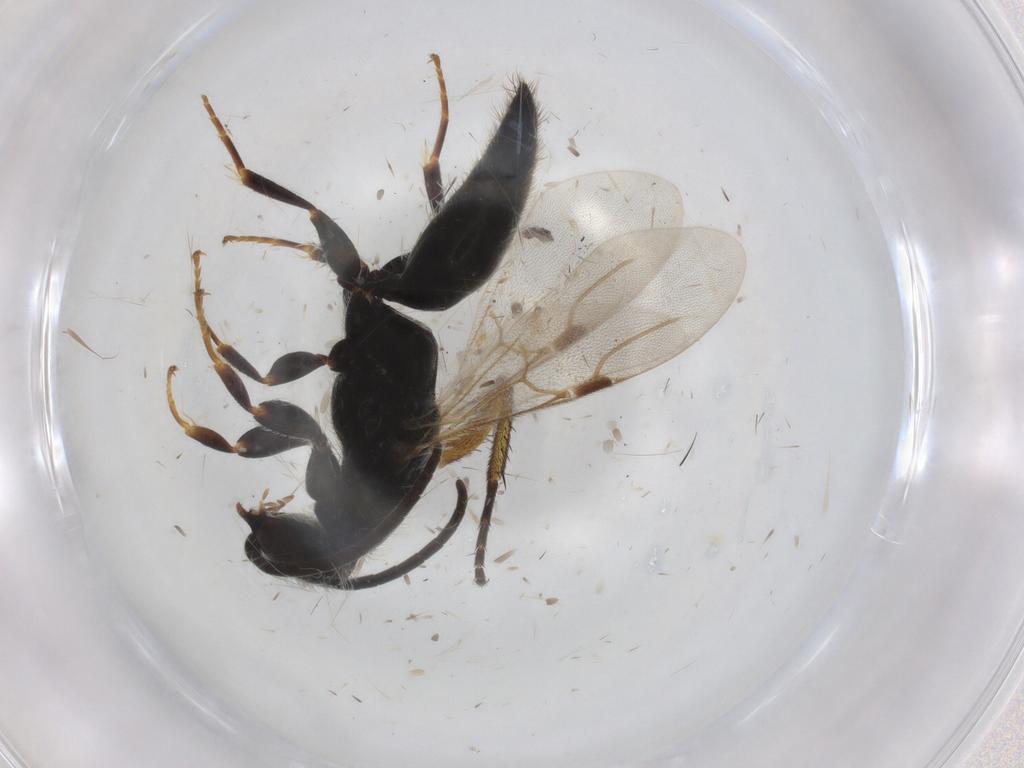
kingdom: Animalia
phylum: Arthropoda
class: Insecta
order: Hymenoptera
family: Bethylidae
